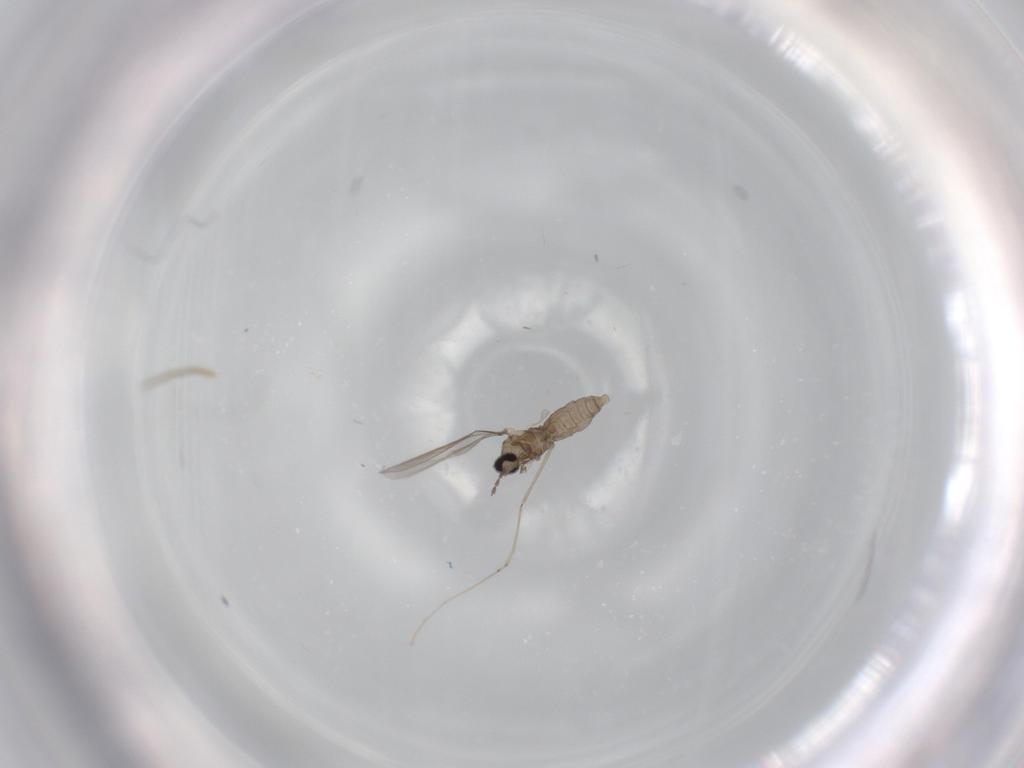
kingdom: Animalia
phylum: Arthropoda
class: Insecta
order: Diptera
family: Cecidomyiidae
